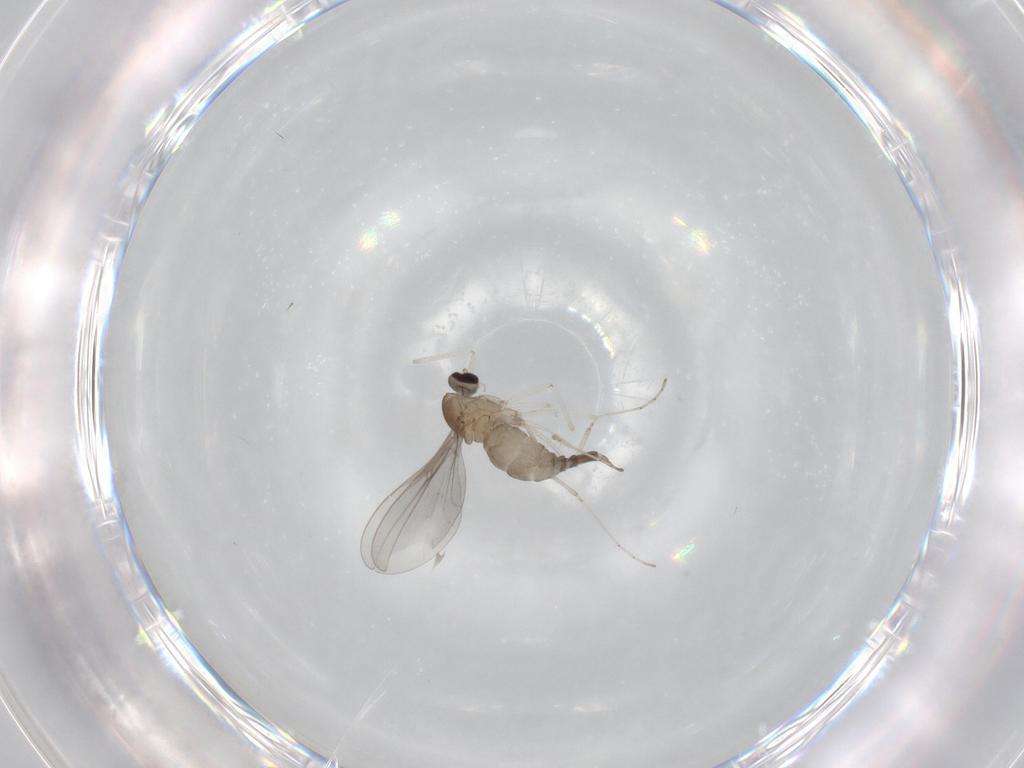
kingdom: Animalia
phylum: Arthropoda
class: Insecta
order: Diptera
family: Cecidomyiidae
